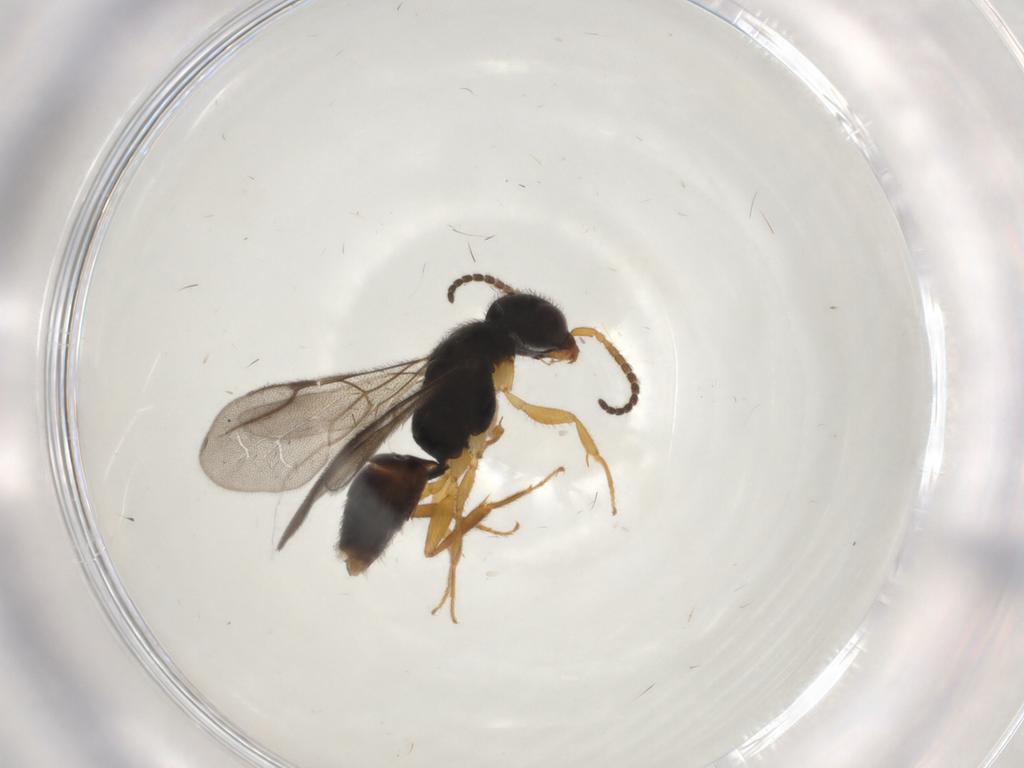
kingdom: Animalia
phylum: Arthropoda
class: Insecta
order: Hymenoptera
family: Bethylidae
